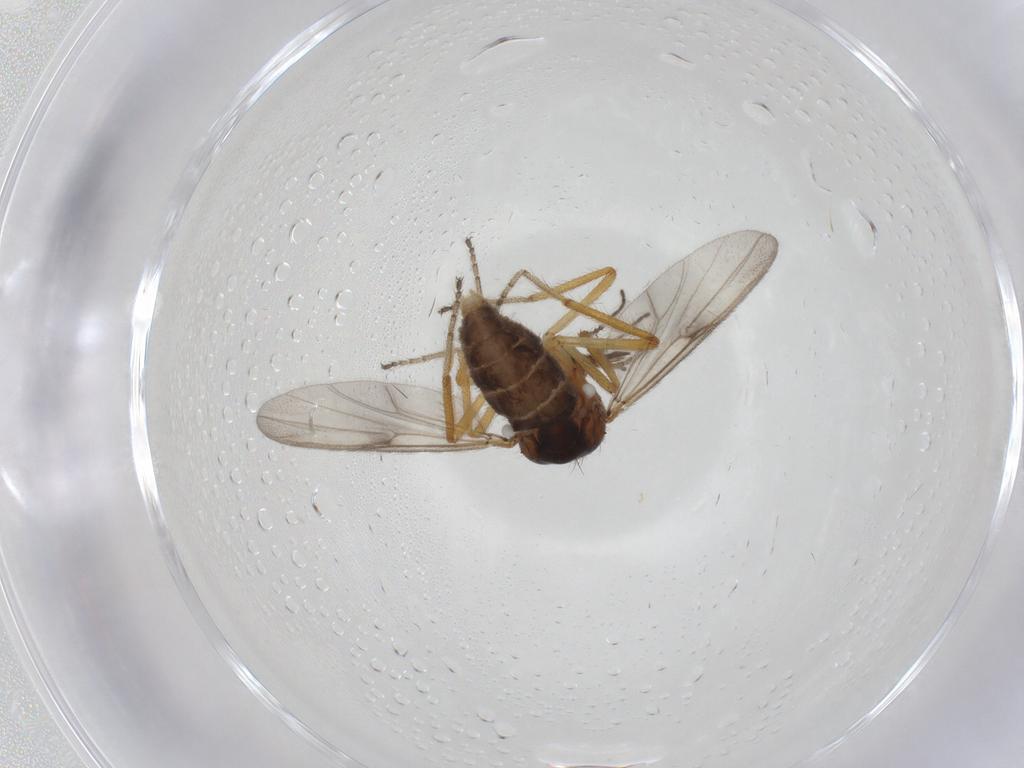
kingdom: Animalia
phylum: Arthropoda
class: Insecta
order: Diptera
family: Ceratopogonidae
